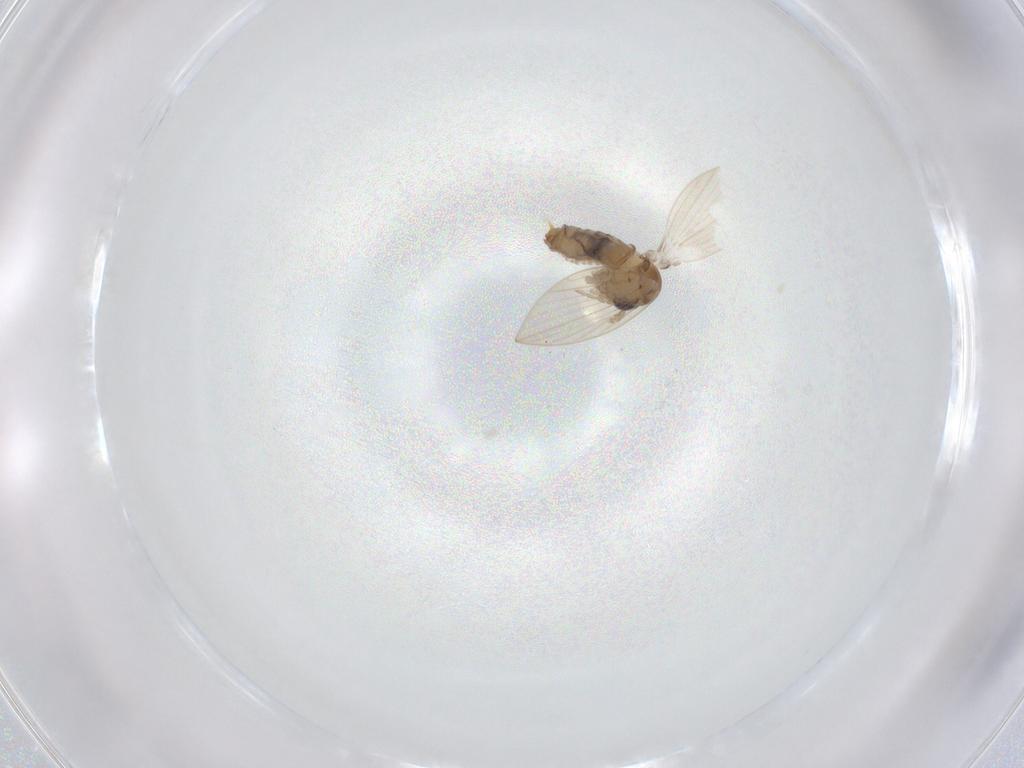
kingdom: Animalia
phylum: Arthropoda
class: Insecta
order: Diptera
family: Psychodidae
